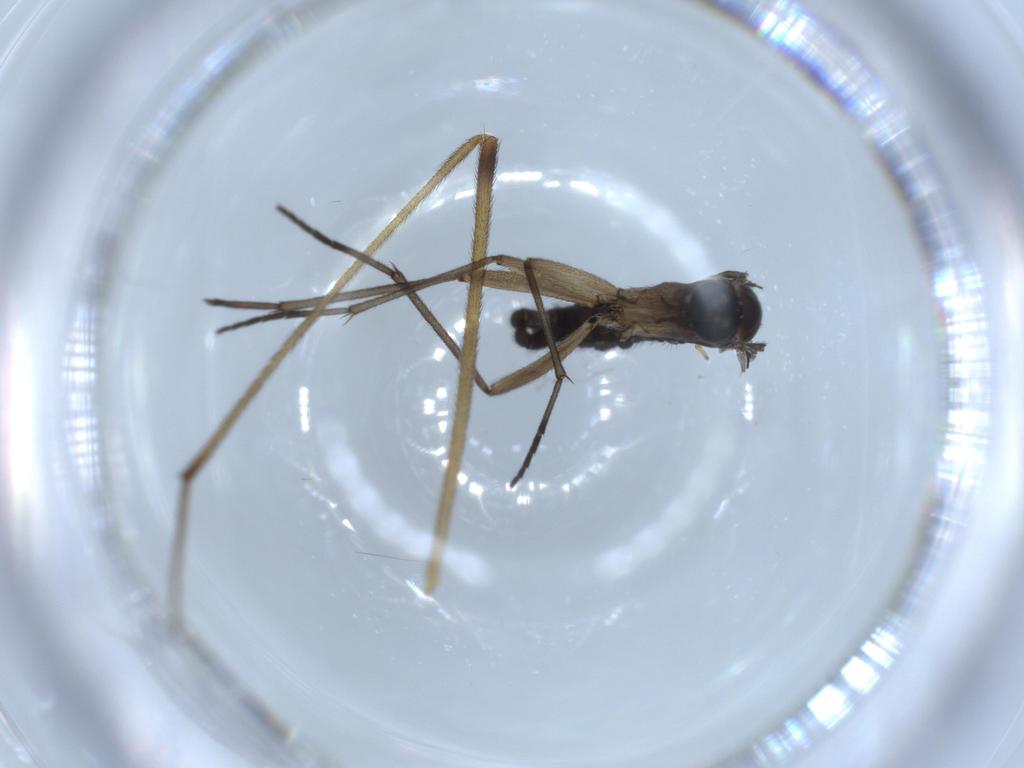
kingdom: Animalia
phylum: Arthropoda
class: Insecta
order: Diptera
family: Sciaridae
